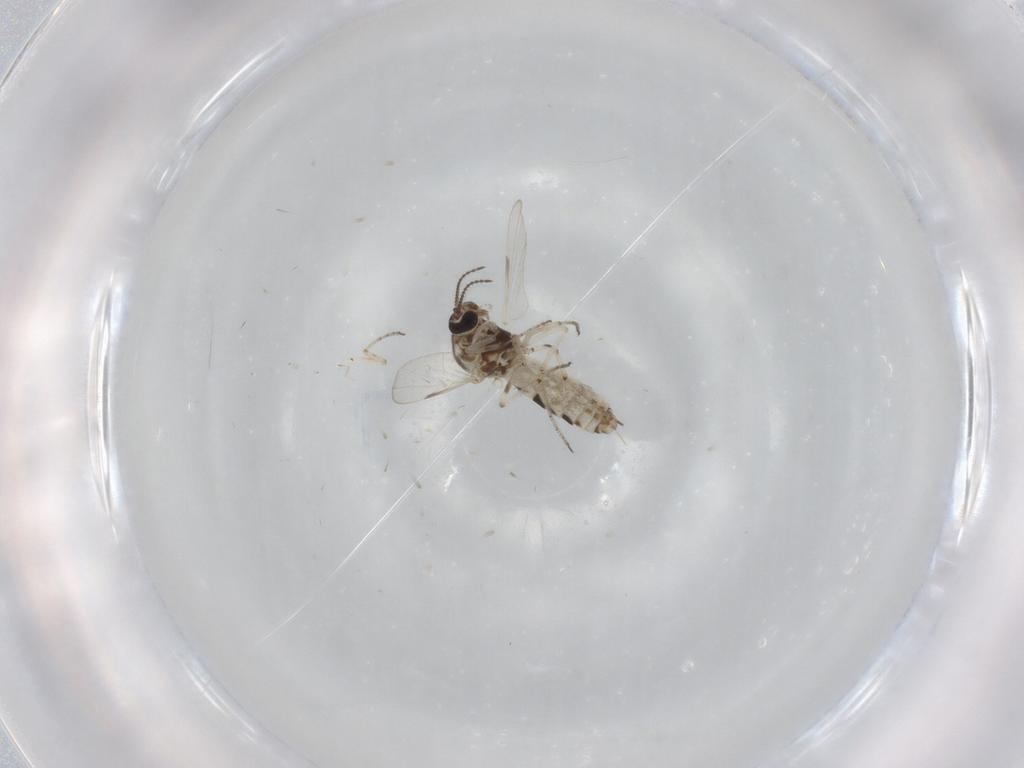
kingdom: Animalia
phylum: Arthropoda
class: Insecta
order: Diptera
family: Ceratopogonidae
